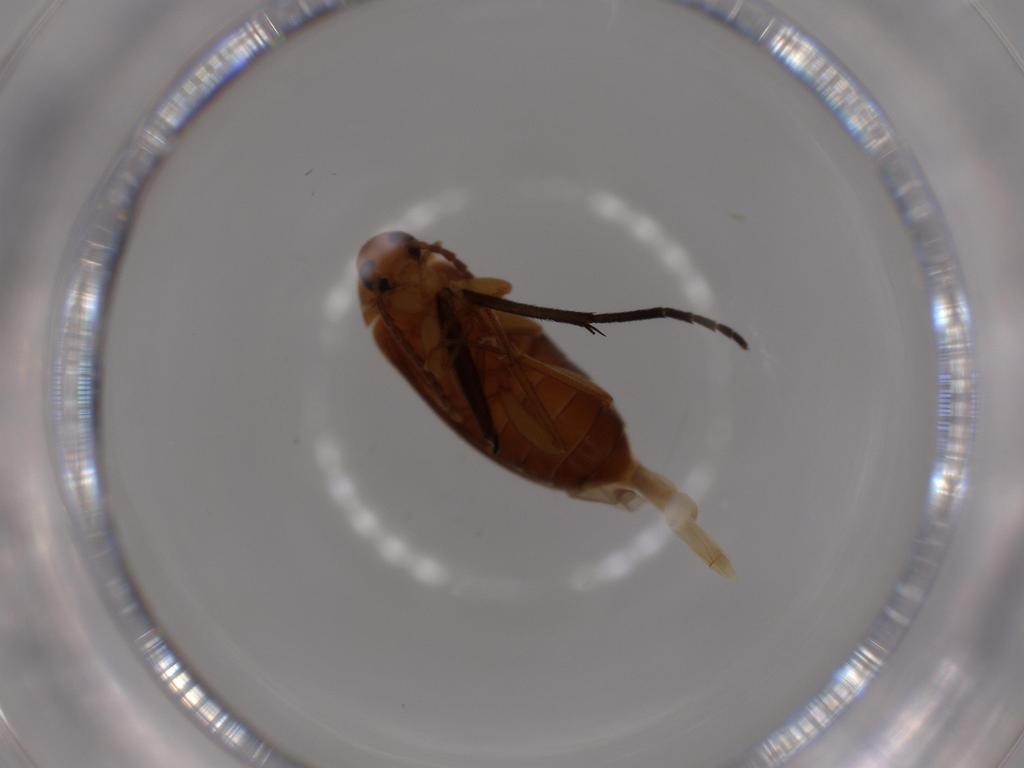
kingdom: Animalia
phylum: Arthropoda
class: Insecta
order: Coleoptera
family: Scraptiidae
